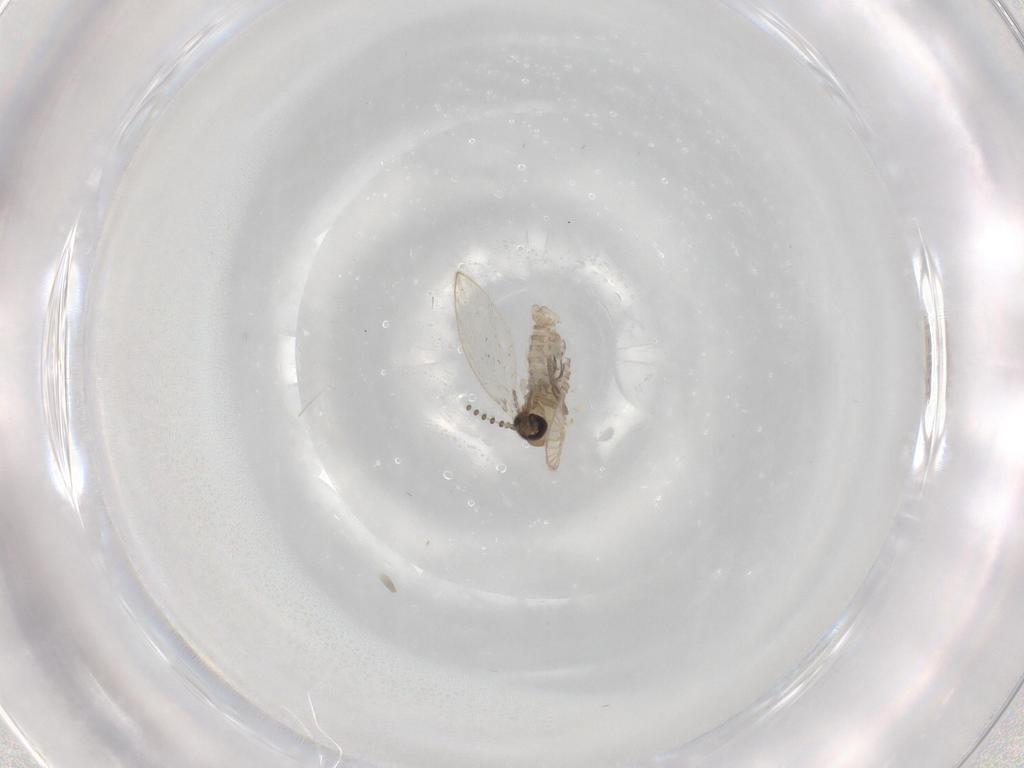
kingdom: Animalia
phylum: Arthropoda
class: Insecta
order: Diptera
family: Psychodidae
